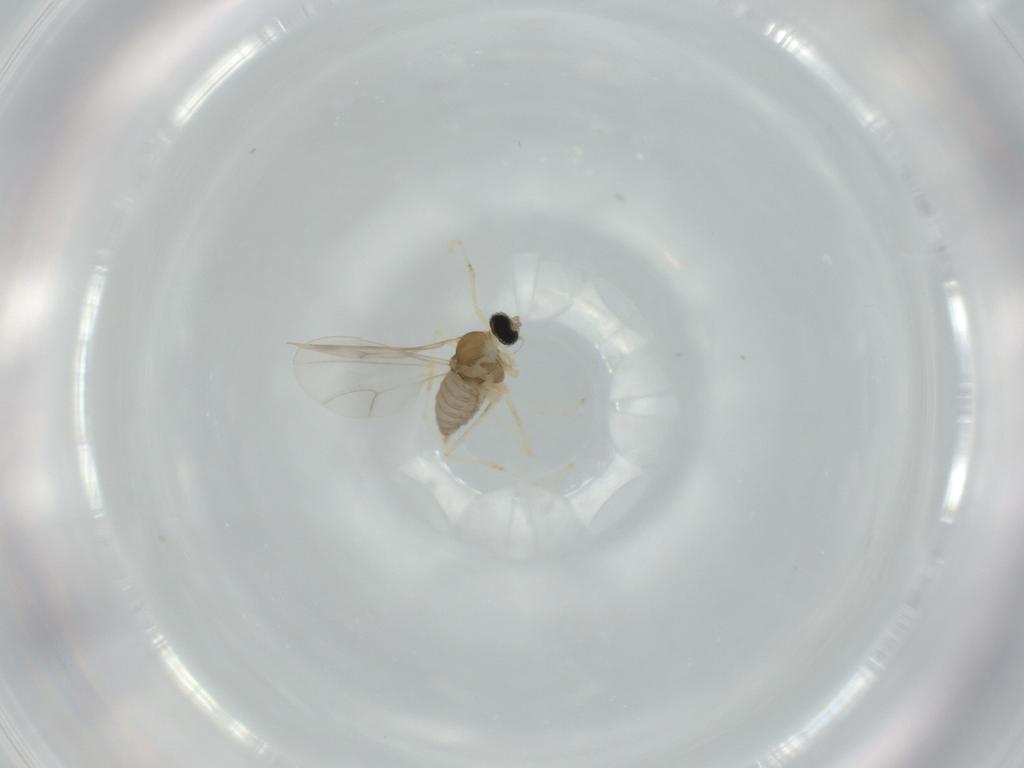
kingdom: Animalia
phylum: Arthropoda
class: Insecta
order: Diptera
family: Cecidomyiidae
